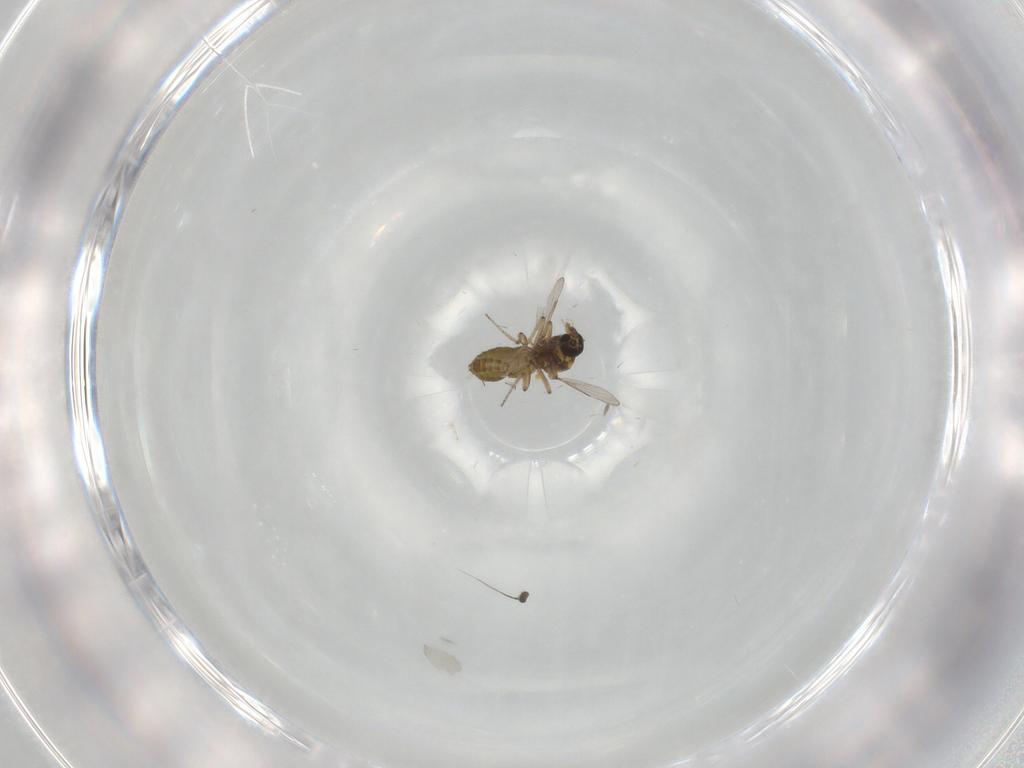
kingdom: Animalia
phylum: Arthropoda
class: Insecta
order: Diptera
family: Ceratopogonidae
